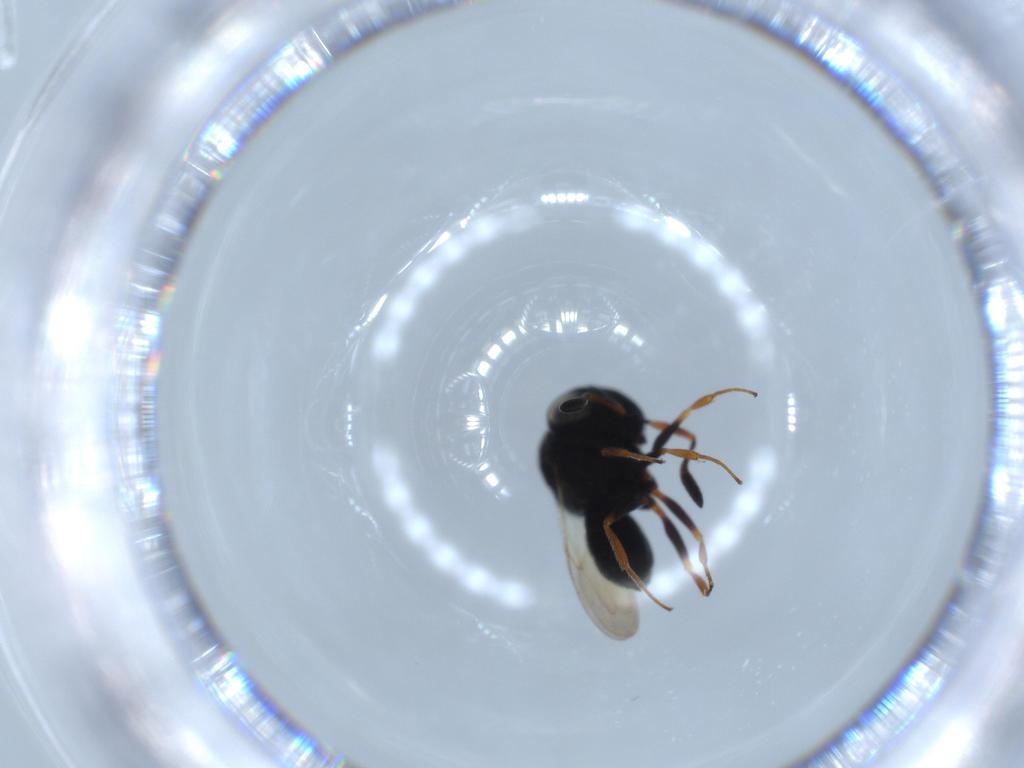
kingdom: Animalia
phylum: Arthropoda
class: Insecta
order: Hymenoptera
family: Scelionidae
